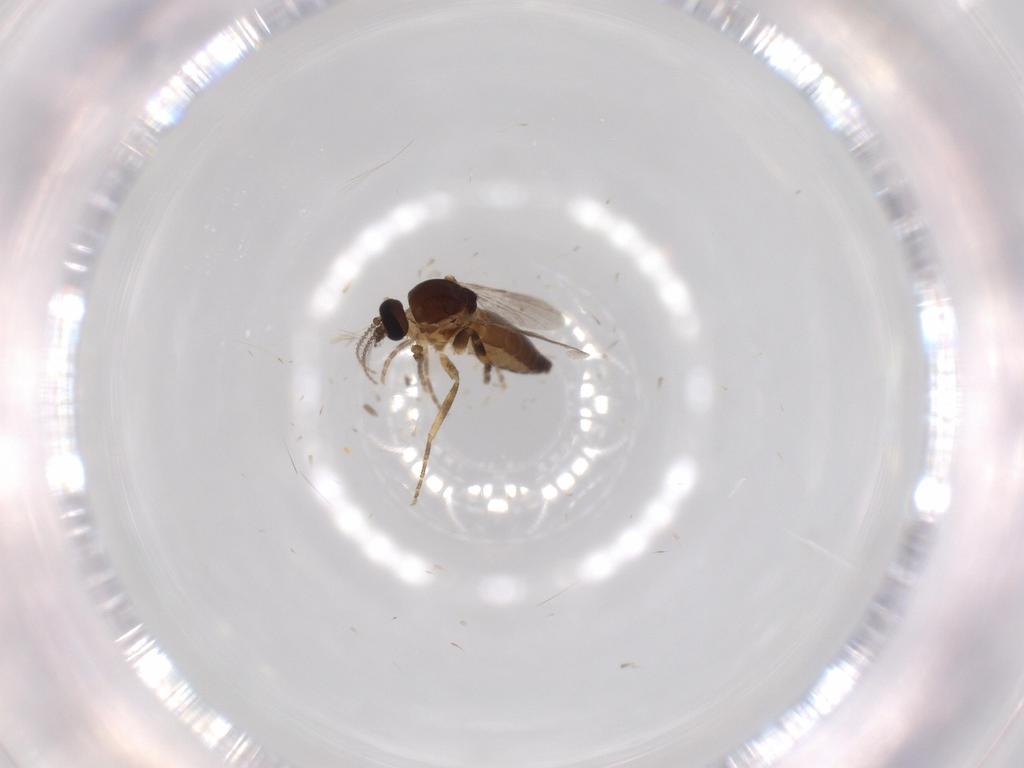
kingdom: Animalia
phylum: Arthropoda
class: Insecta
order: Diptera
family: Ceratopogonidae
